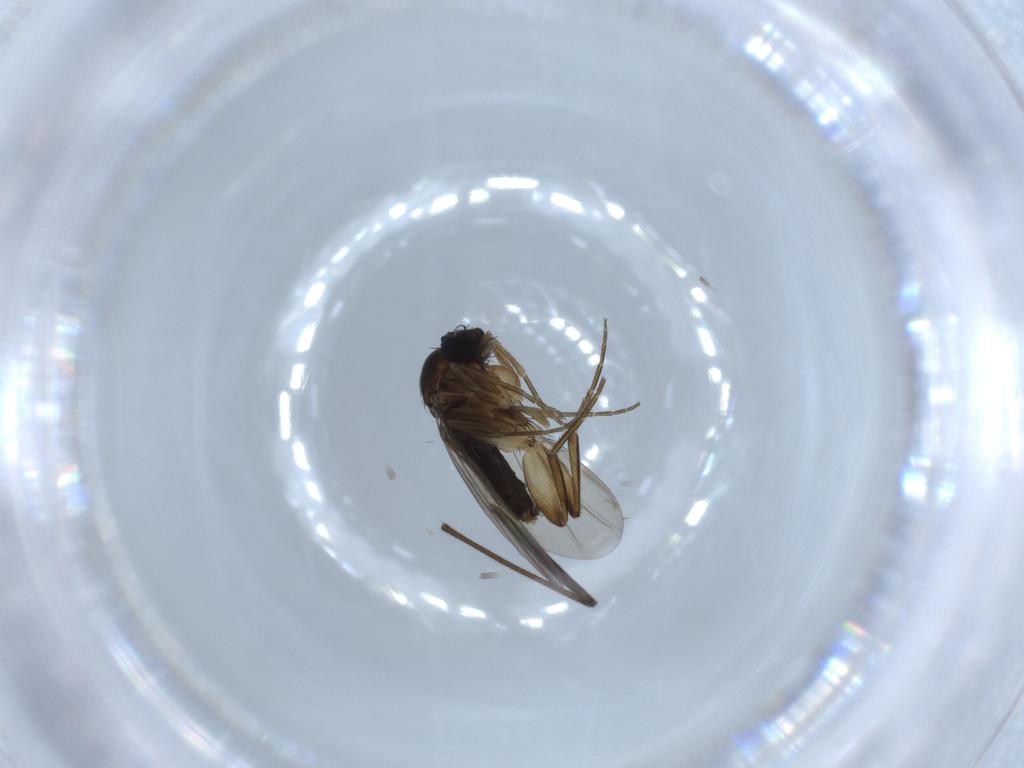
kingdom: Animalia
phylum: Arthropoda
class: Insecta
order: Diptera
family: Phoridae
